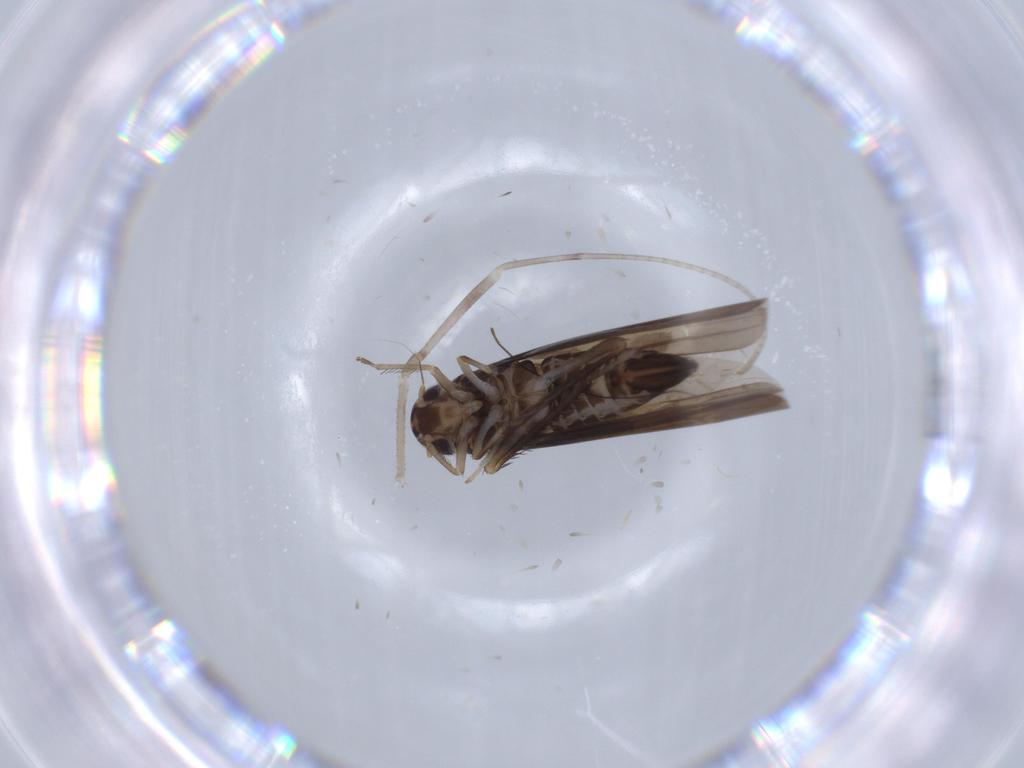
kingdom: Animalia
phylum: Arthropoda
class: Insecta
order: Hemiptera
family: Cicadellidae
